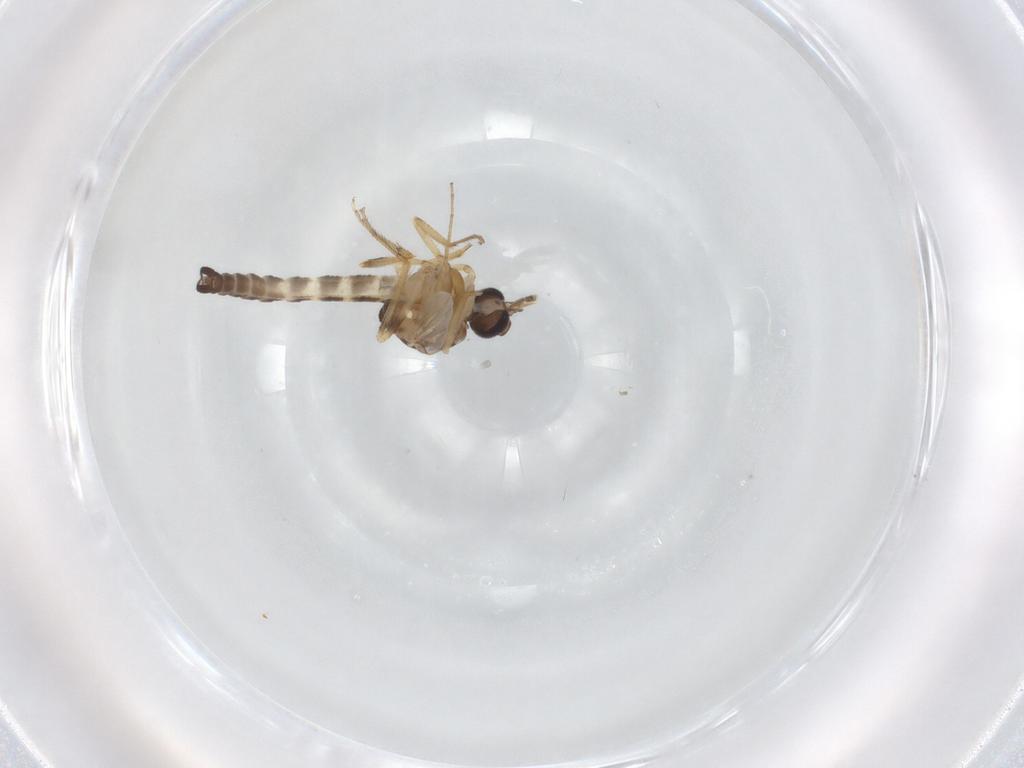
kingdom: Animalia
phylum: Arthropoda
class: Insecta
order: Diptera
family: Ceratopogonidae
